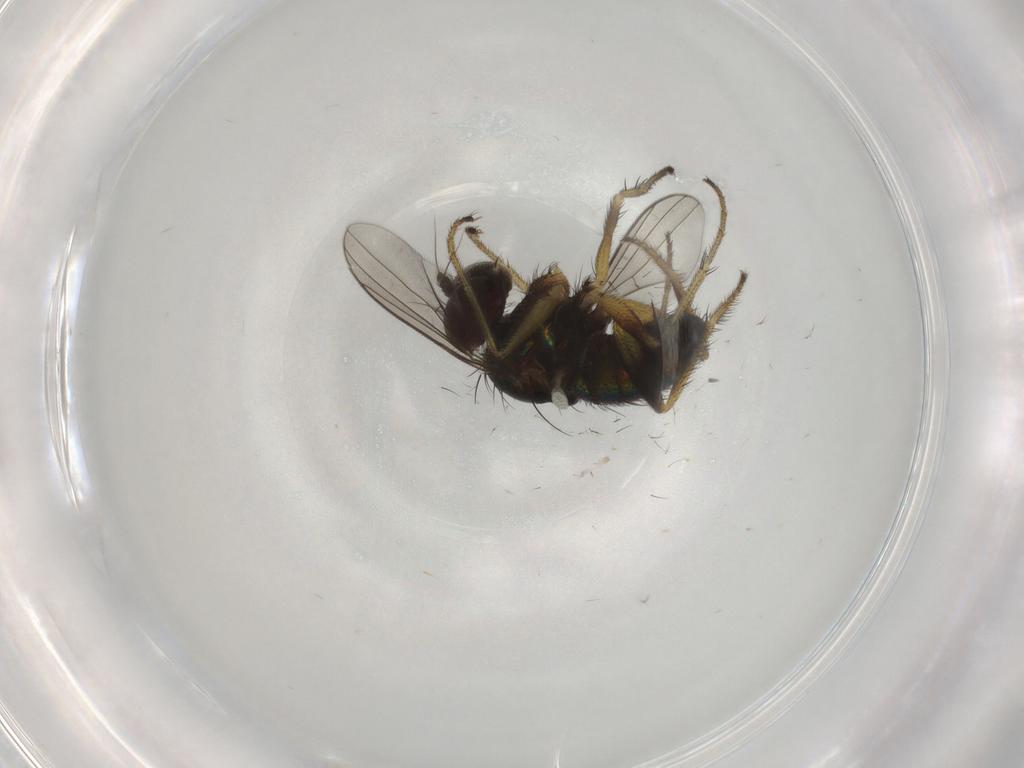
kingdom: Animalia
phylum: Arthropoda
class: Insecta
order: Diptera
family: Dolichopodidae
